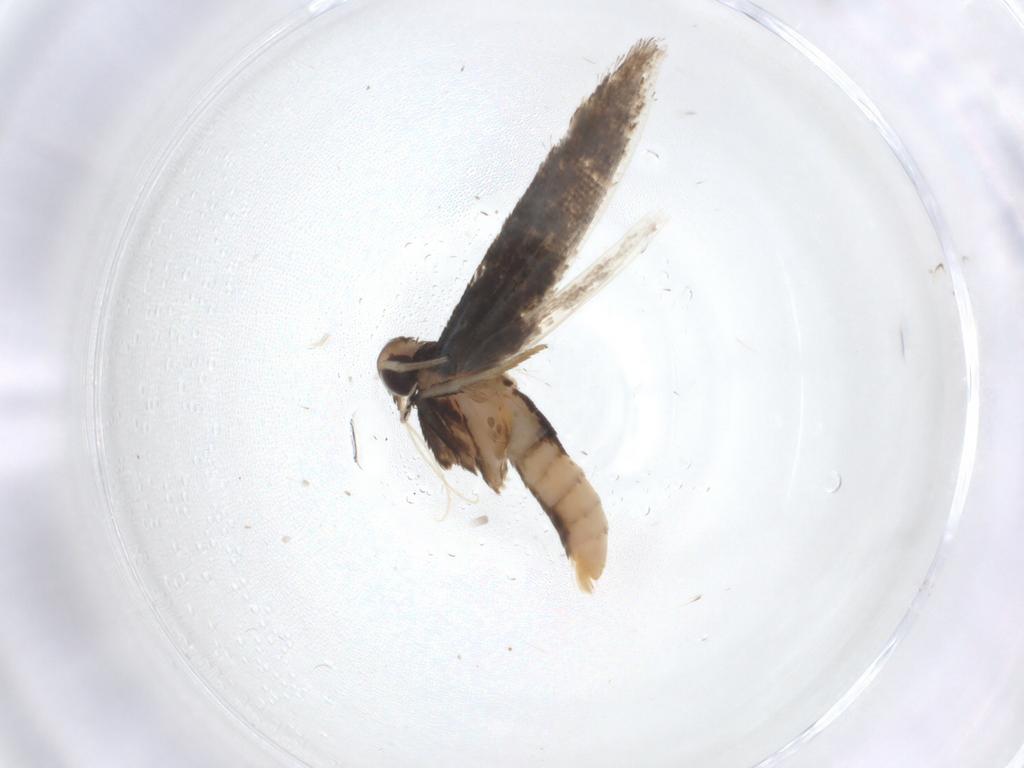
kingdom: Animalia
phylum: Arthropoda
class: Insecta
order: Lepidoptera
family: Cosmopterigidae
